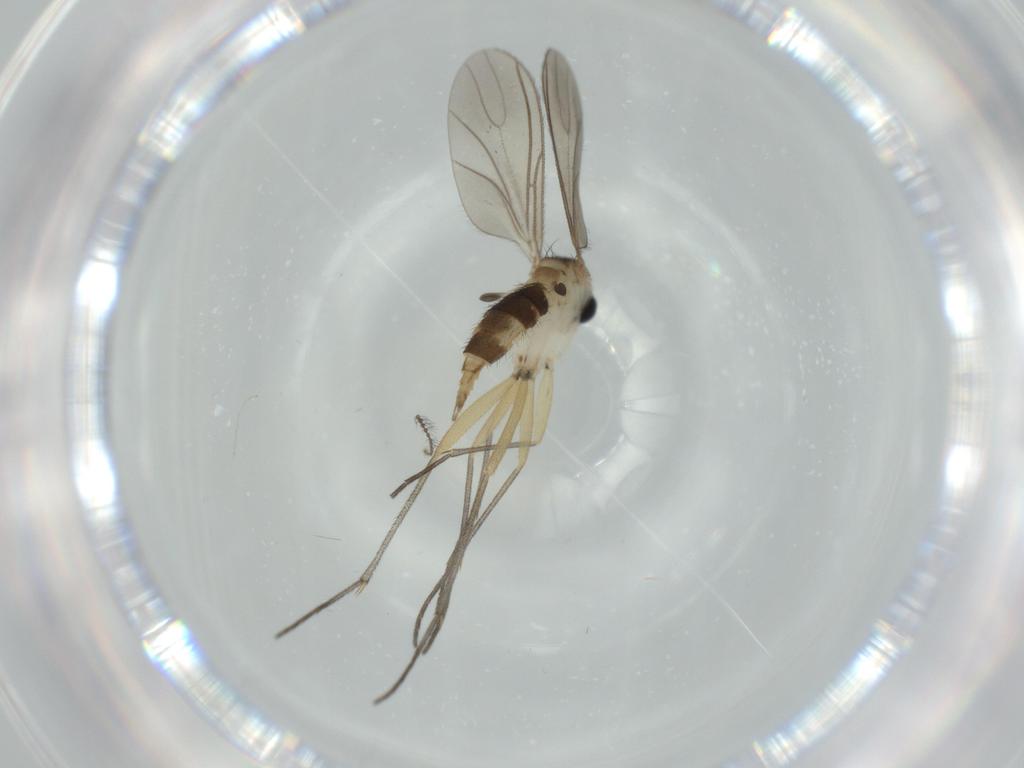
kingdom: Animalia
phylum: Arthropoda
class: Insecta
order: Diptera
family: Sciaridae
